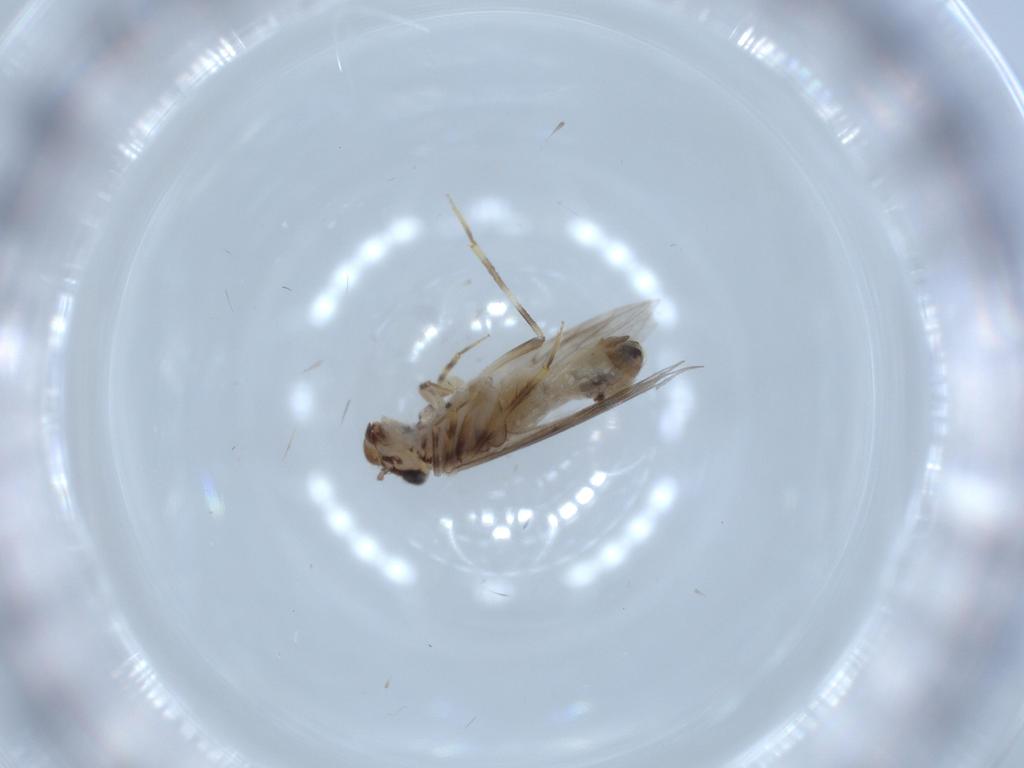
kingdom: Animalia
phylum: Arthropoda
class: Insecta
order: Psocodea
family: Lepidopsocidae
